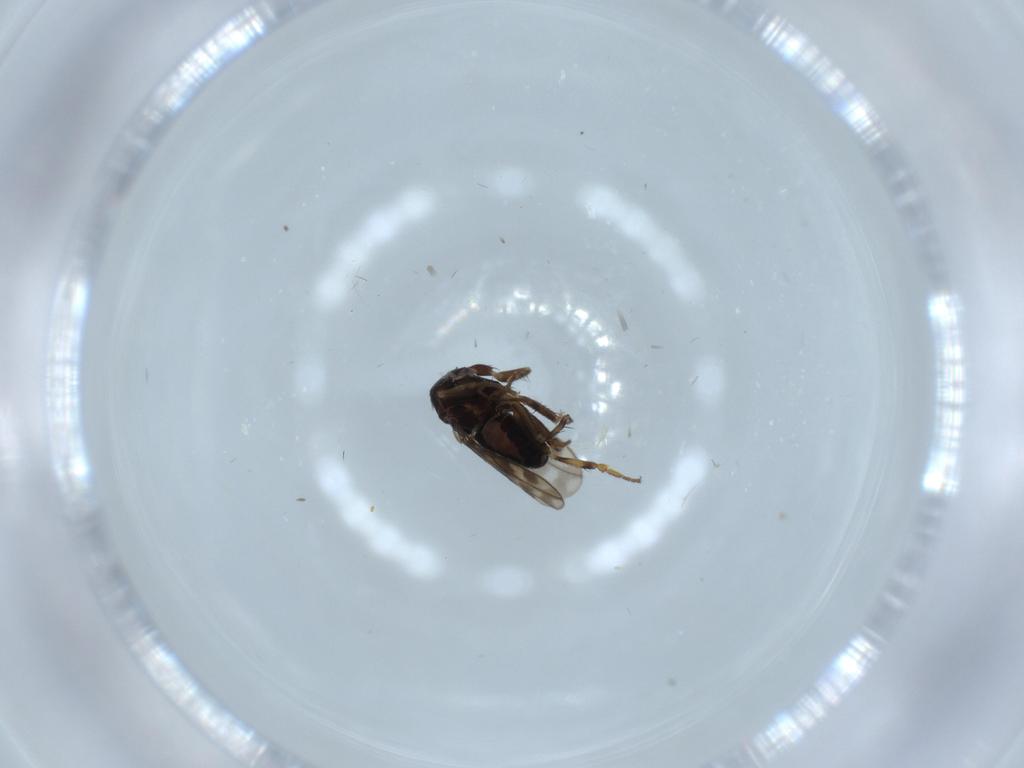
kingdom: Animalia
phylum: Arthropoda
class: Insecta
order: Diptera
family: Sphaeroceridae
